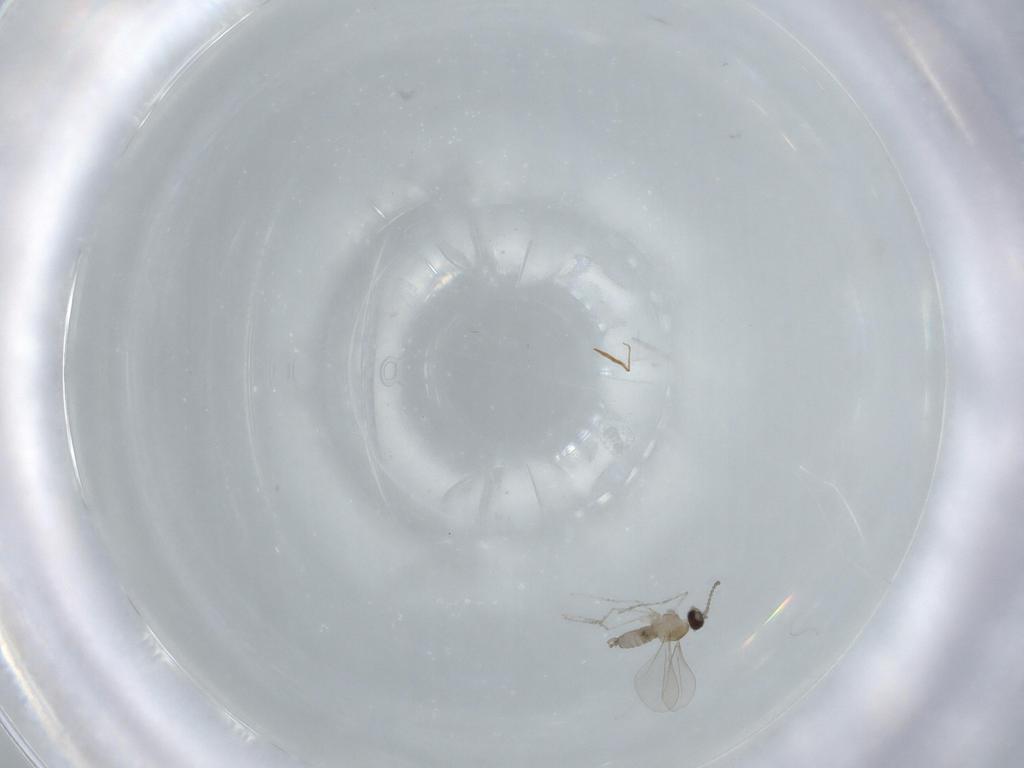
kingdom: Animalia
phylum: Arthropoda
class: Insecta
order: Diptera
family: Cecidomyiidae
